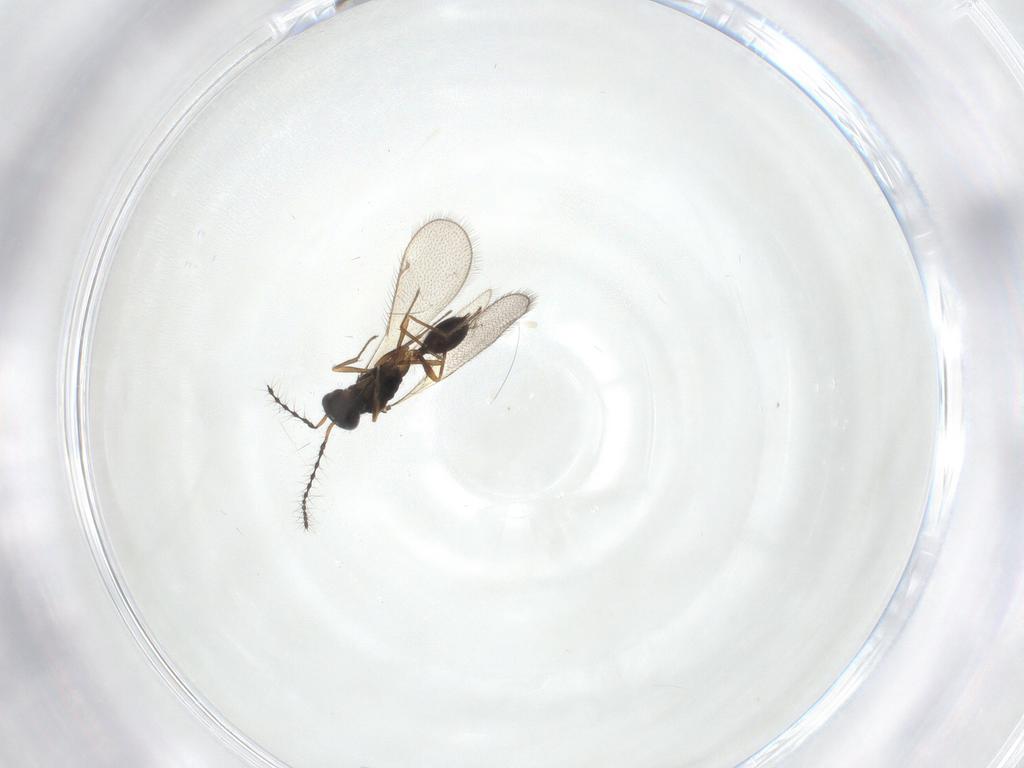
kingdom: Animalia
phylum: Arthropoda
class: Insecta
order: Hymenoptera
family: Diparidae
